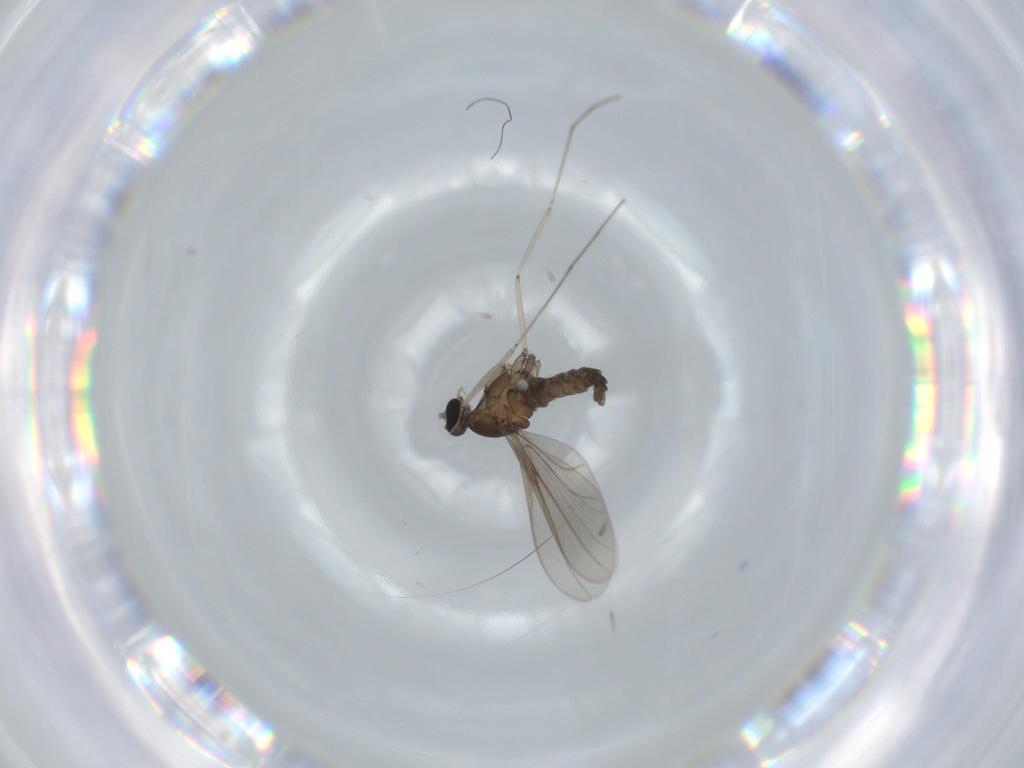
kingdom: Animalia
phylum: Arthropoda
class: Insecta
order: Diptera
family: Cecidomyiidae
